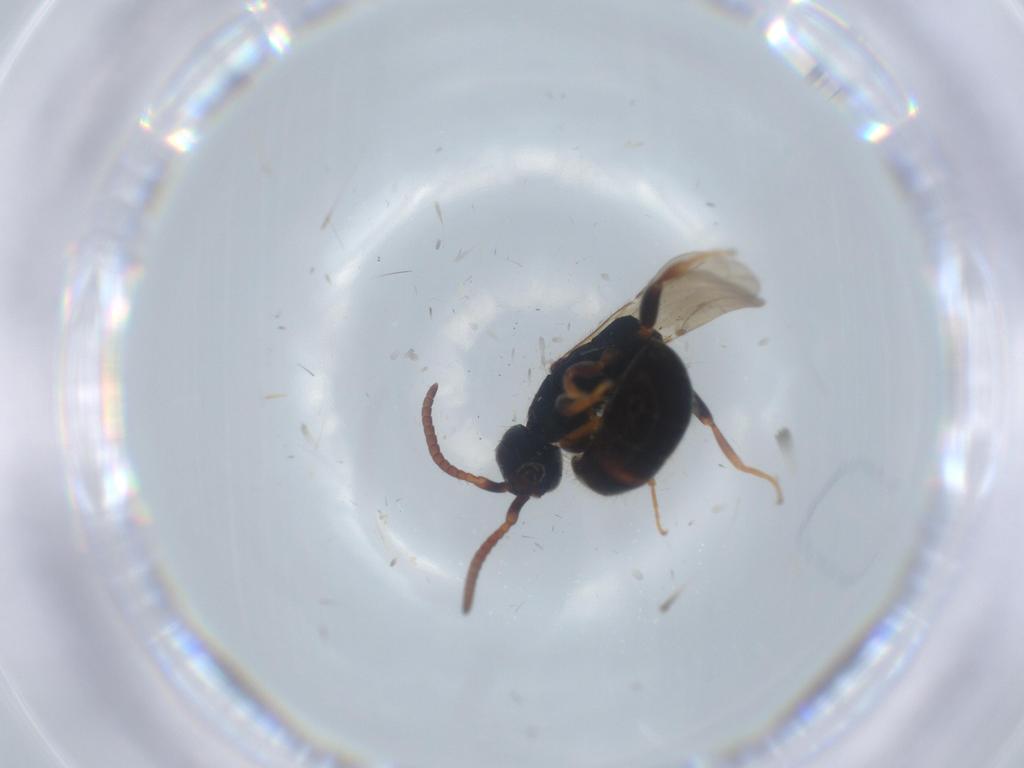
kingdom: Animalia
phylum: Arthropoda
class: Insecta
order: Hymenoptera
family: Bethylidae
